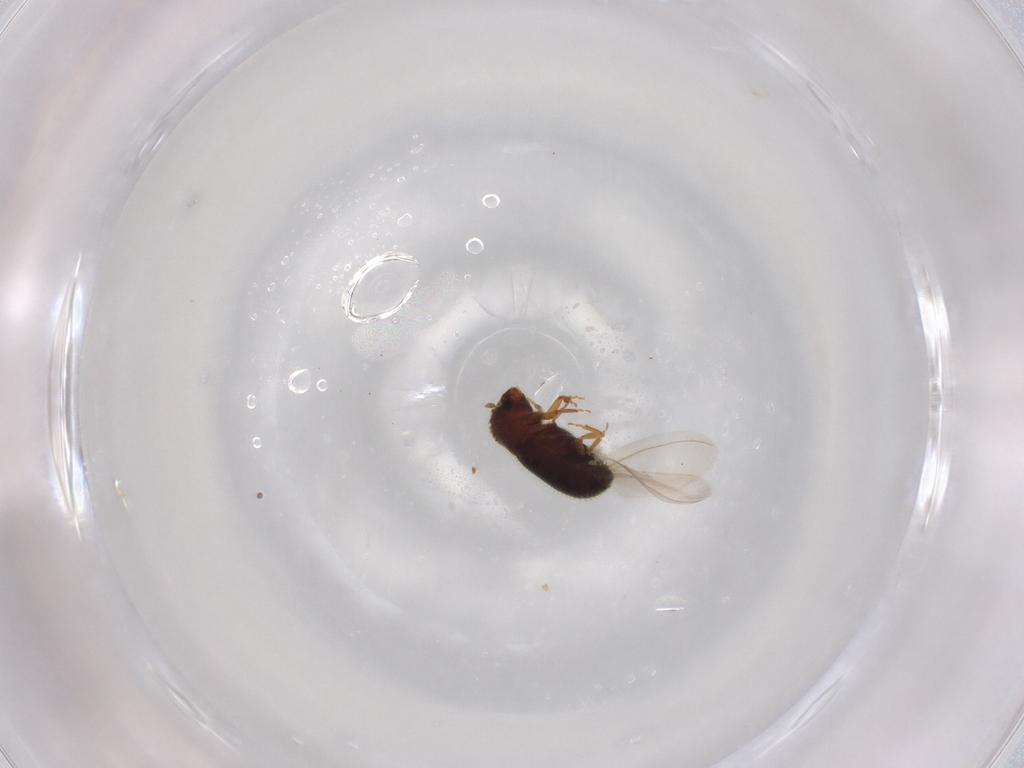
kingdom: Animalia
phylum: Arthropoda
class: Insecta
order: Coleoptera
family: Curculionidae
